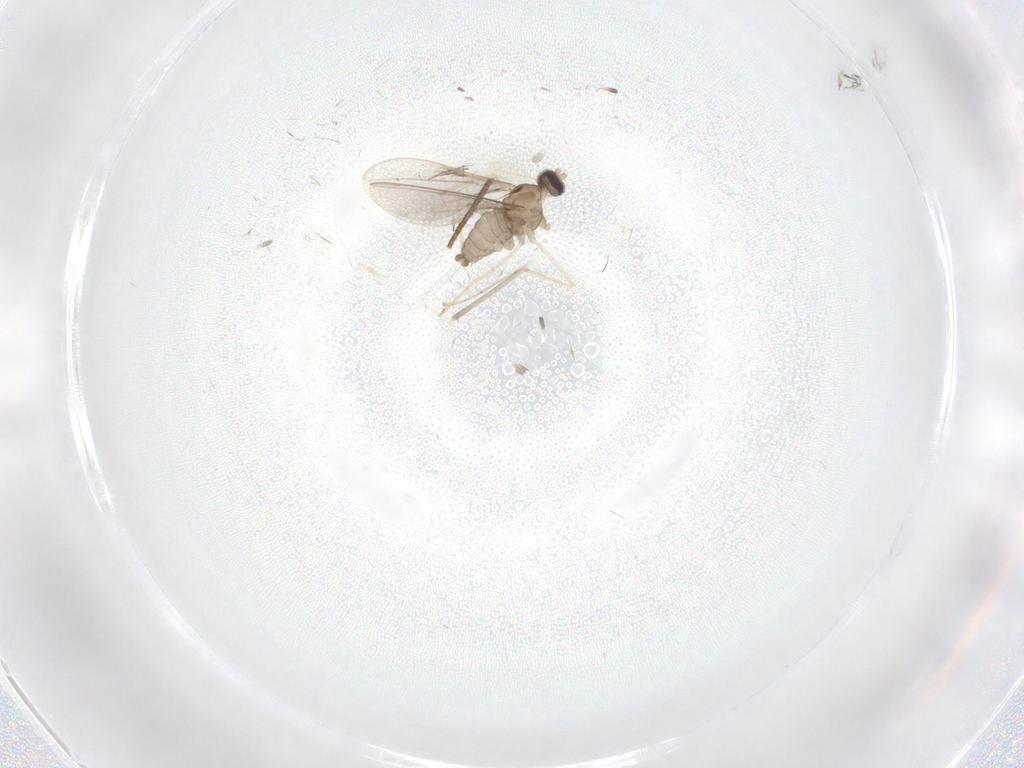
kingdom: Animalia
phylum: Arthropoda
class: Insecta
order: Diptera
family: Cecidomyiidae
